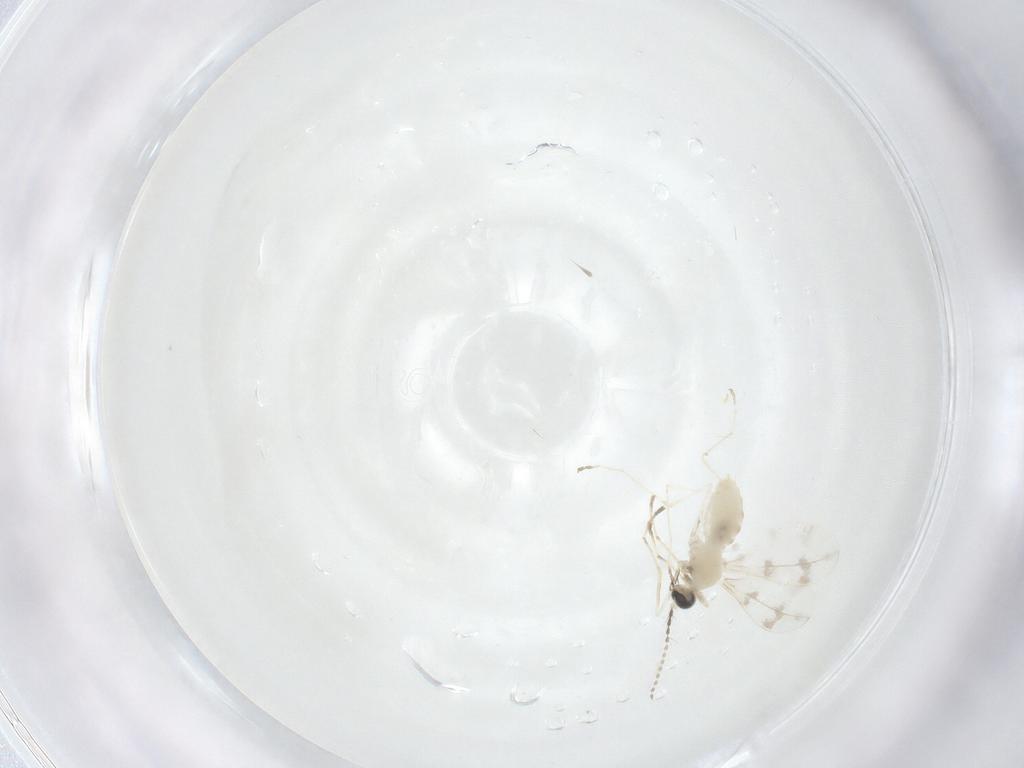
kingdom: Animalia
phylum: Arthropoda
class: Insecta
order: Diptera
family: Cecidomyiidae
